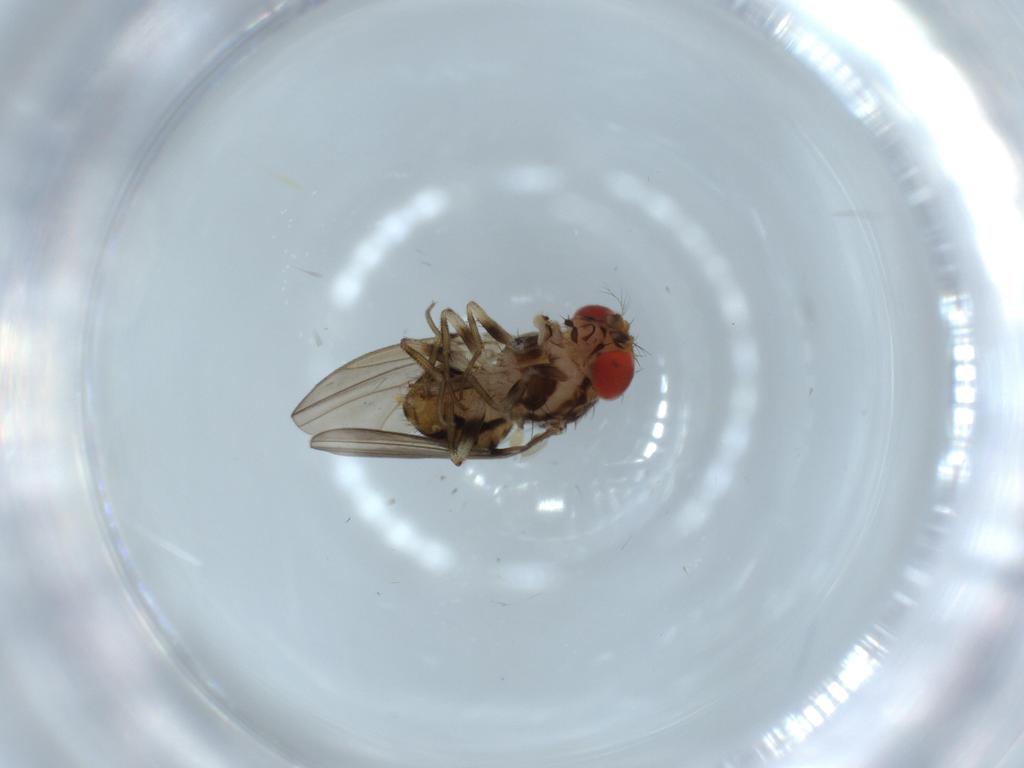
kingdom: Animalia
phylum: Arthropoda
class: Insecta
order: Diptera
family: Drosophilidae
